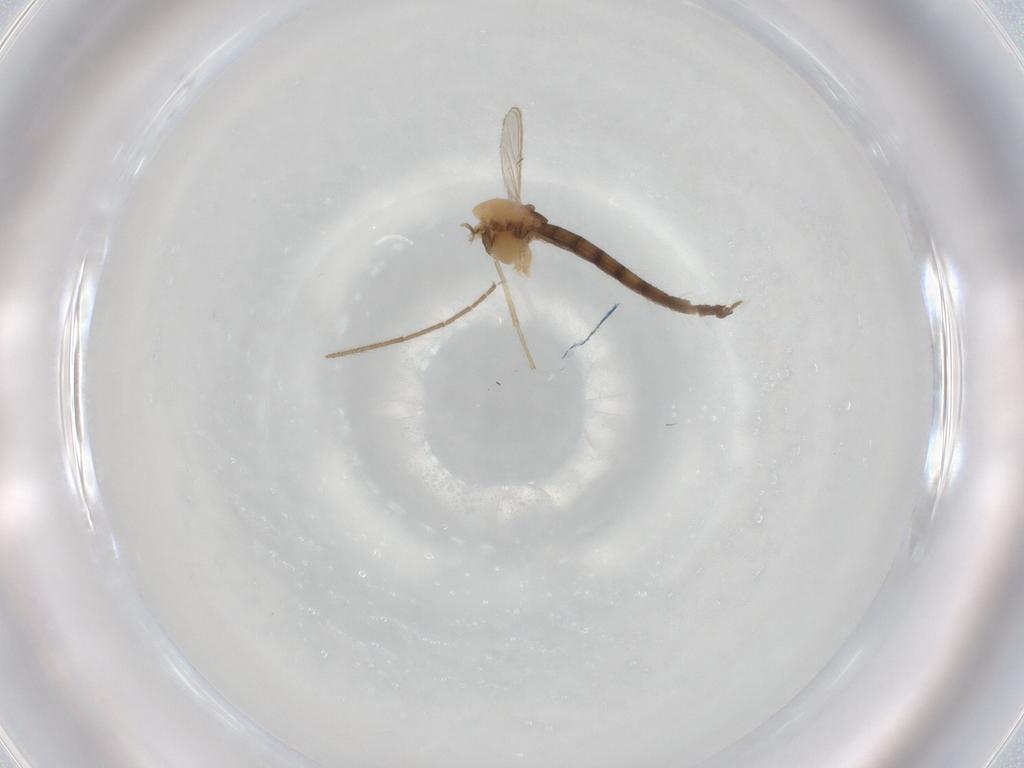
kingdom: Animalia
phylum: Arthropoda
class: Insecta
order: Diptera
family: Chironomidae
